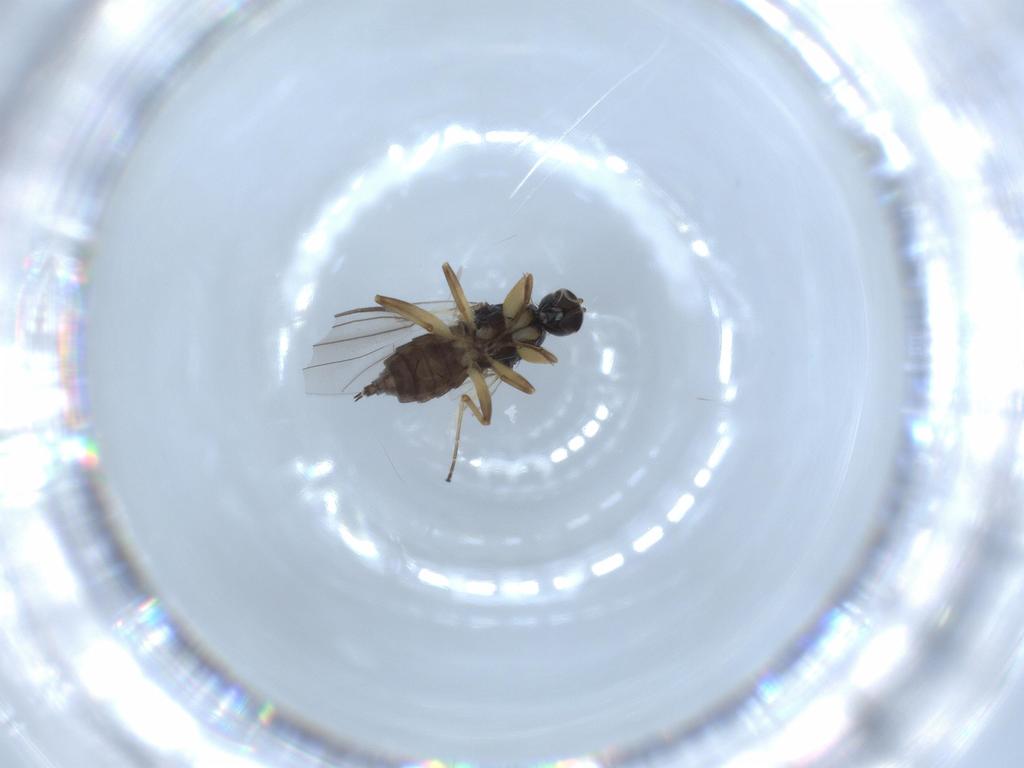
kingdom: Animalia
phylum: Arthropoda
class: Insecta
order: Diptera
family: Hybotidae
